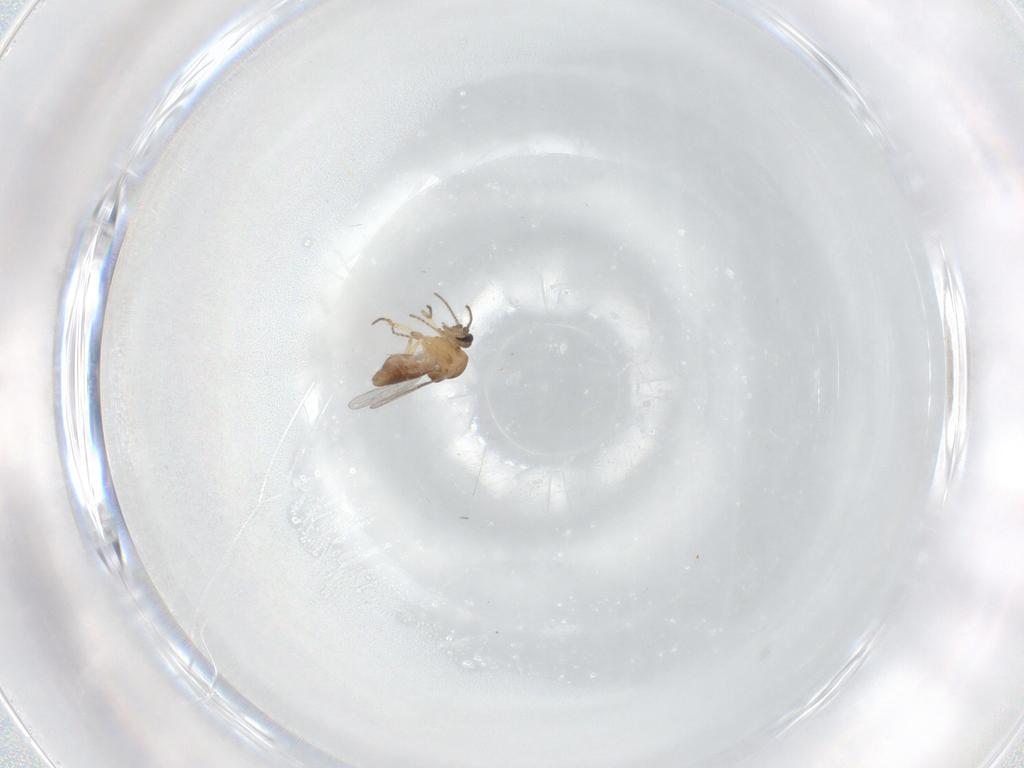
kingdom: Animalia
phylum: Arthropoda
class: Insecta
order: Diptera
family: Ceratopogonidae
